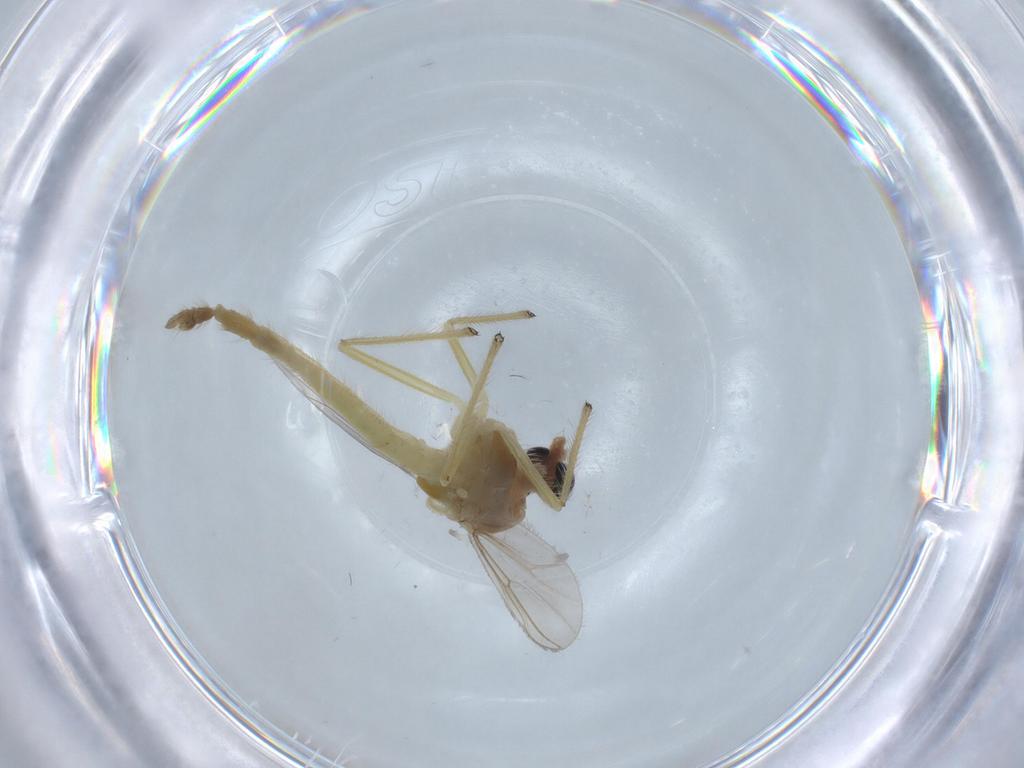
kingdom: Animalia
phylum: Arthropoda
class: Insecta
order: Diptera
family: Chironomidae
